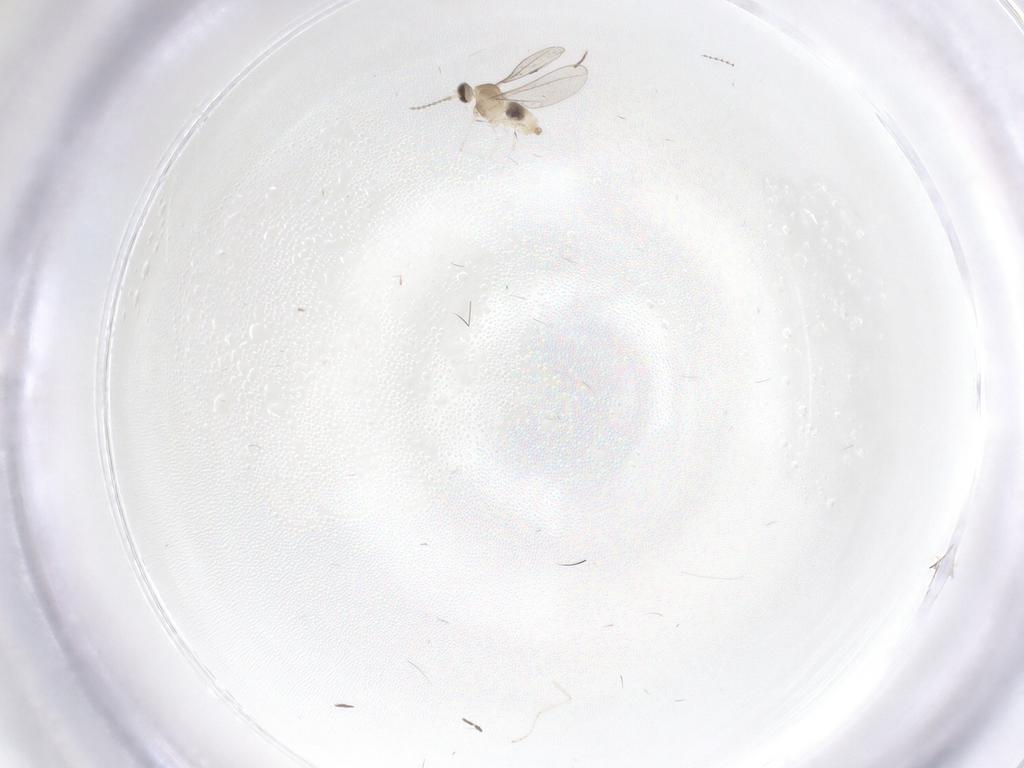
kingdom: Animalia
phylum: Arthropoda
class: Insecta
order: Diptera
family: Cecidomyiidae
